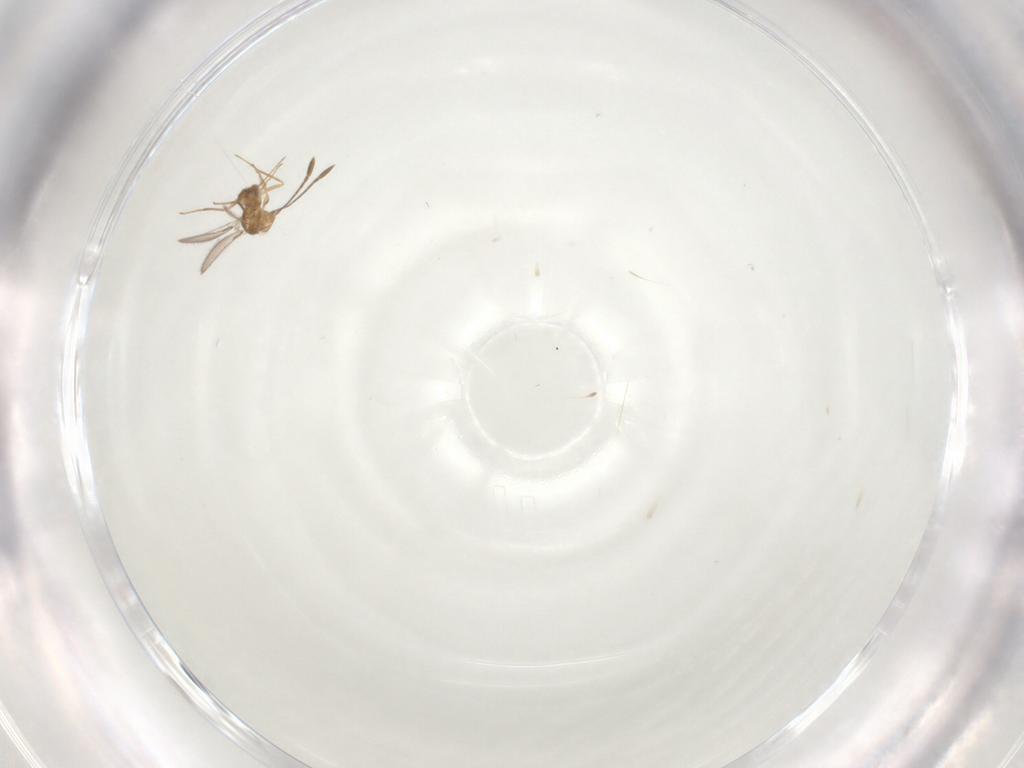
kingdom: Animalia
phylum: Arthropoda
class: Insecta
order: Hymenoptera
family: Mymaridae
